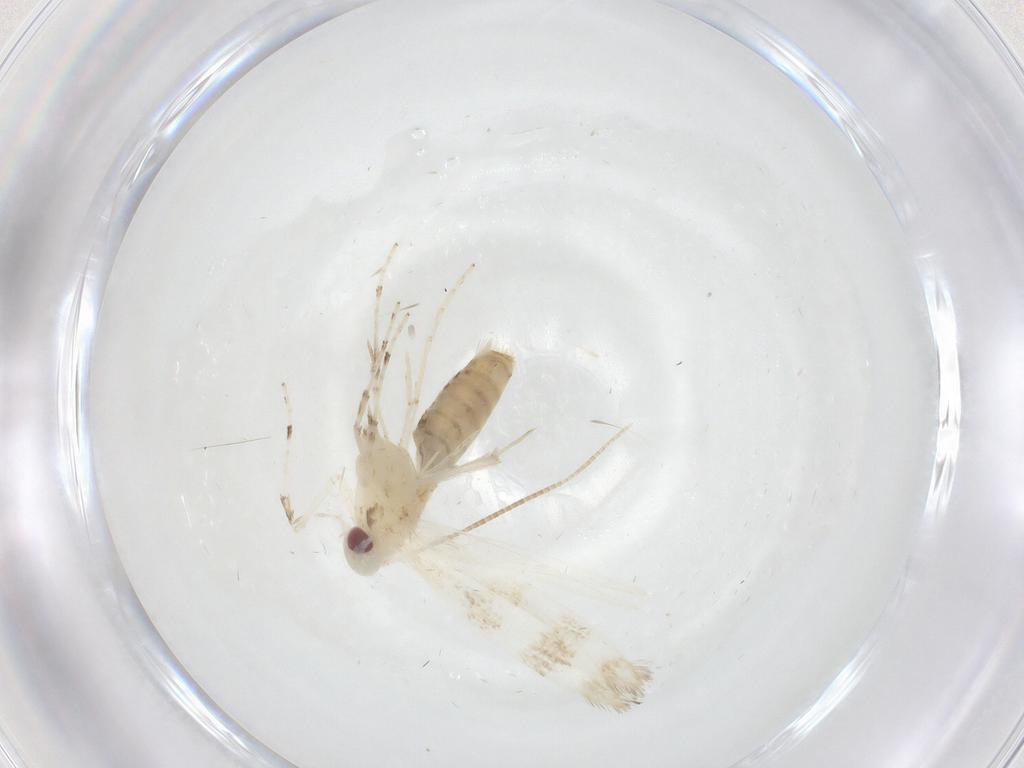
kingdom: Animalia
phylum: Arthropoda
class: Insecta
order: Lepidoptera
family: Gracillariidae
